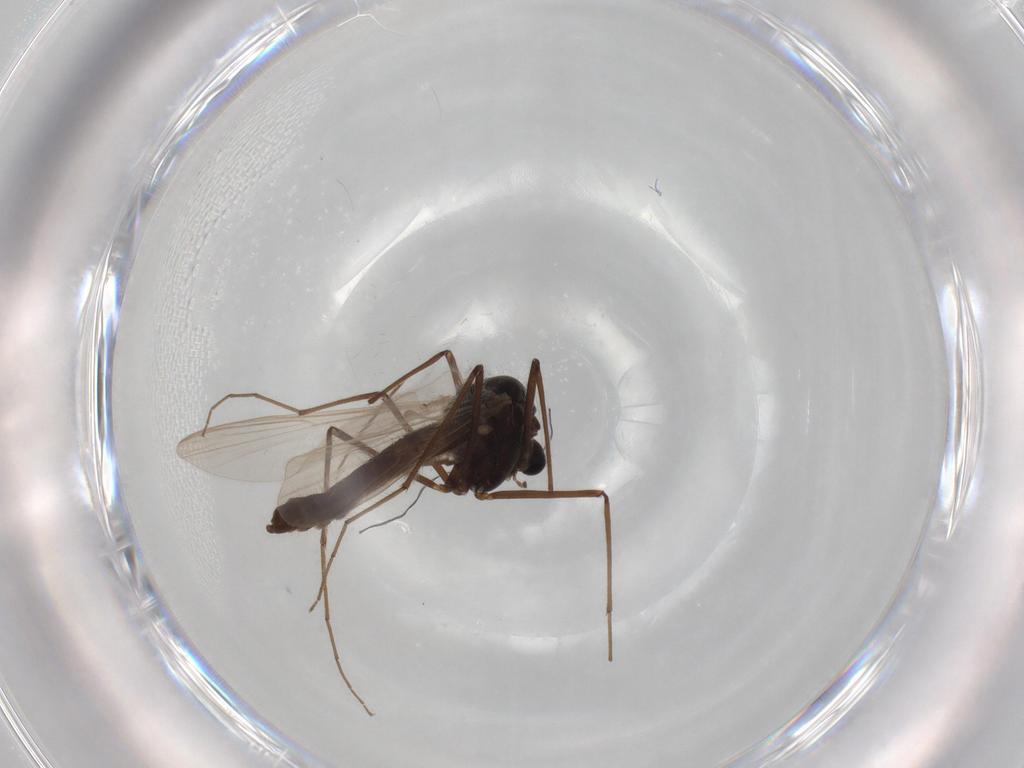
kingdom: Animalia
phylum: Arthropoda
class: Insecta
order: Diptera
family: Drosophilidae
